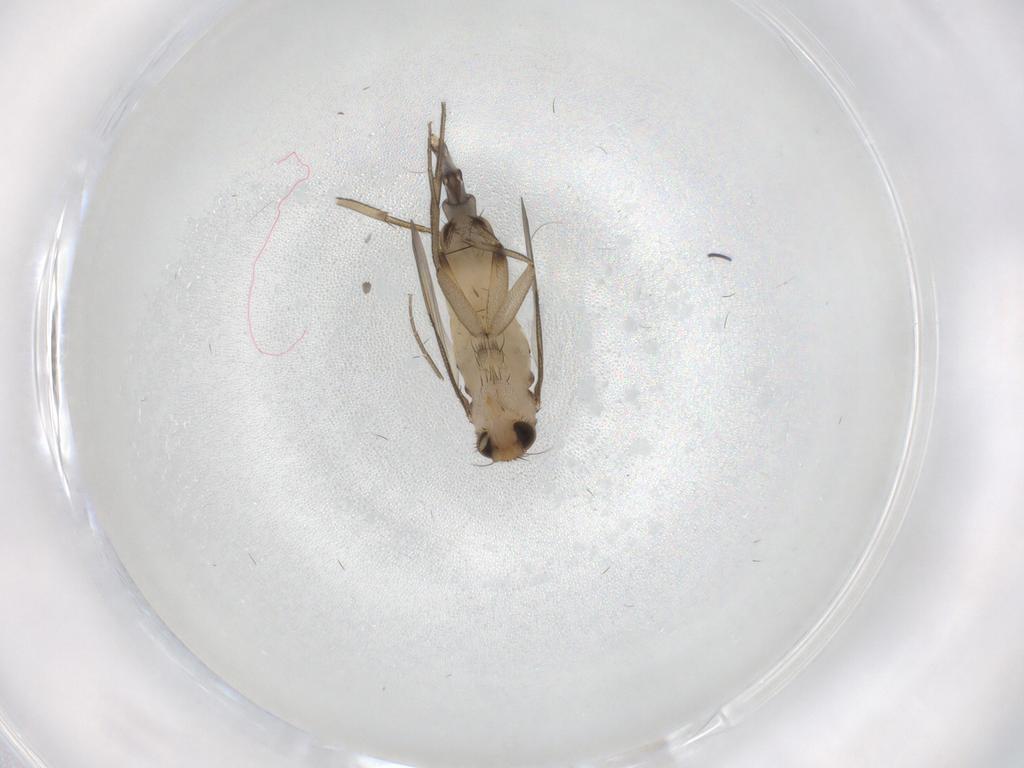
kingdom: Animalia
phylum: Arthropoda
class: Insecta
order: Diptera
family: Phoridae
